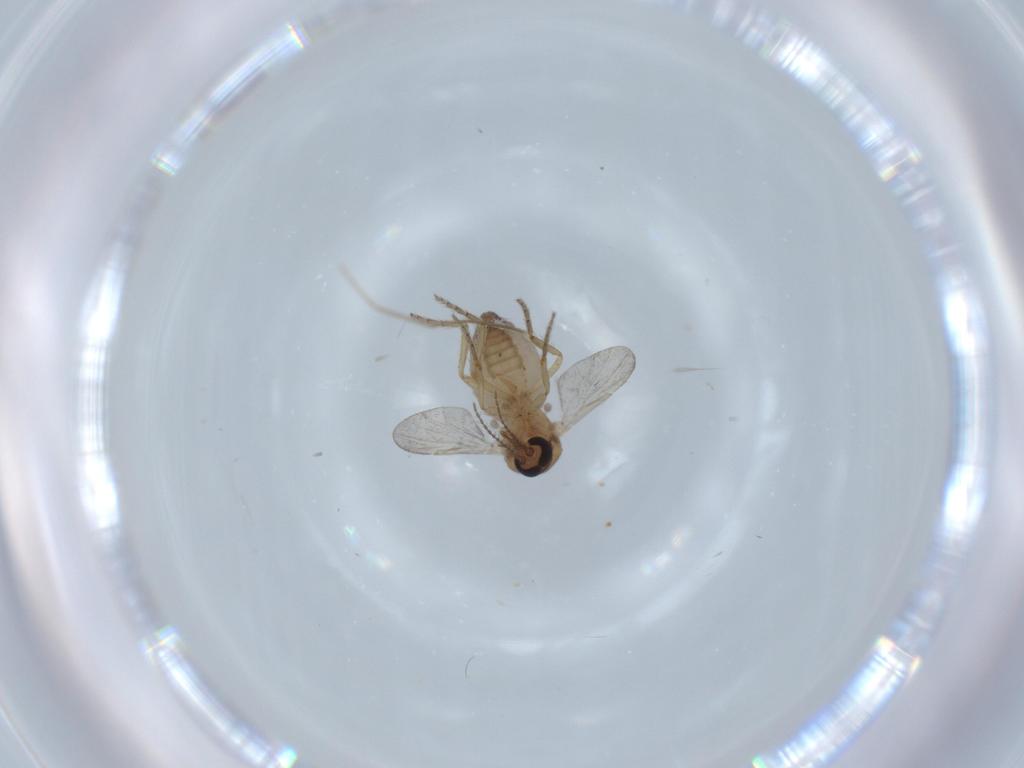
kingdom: Animalia
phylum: Arthropoda
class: Insecta
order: Diptera
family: Ceratopogonidae
